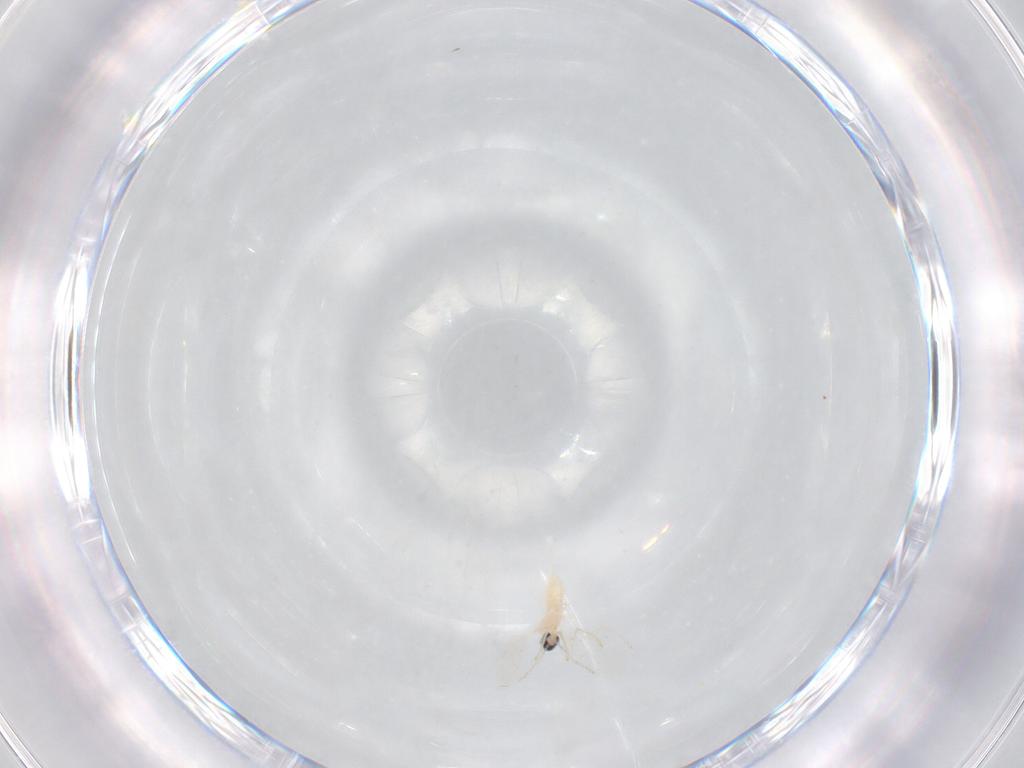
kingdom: Animalia
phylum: Arthropoda
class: Insecta
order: Diptera
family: Cecidomyiidae
